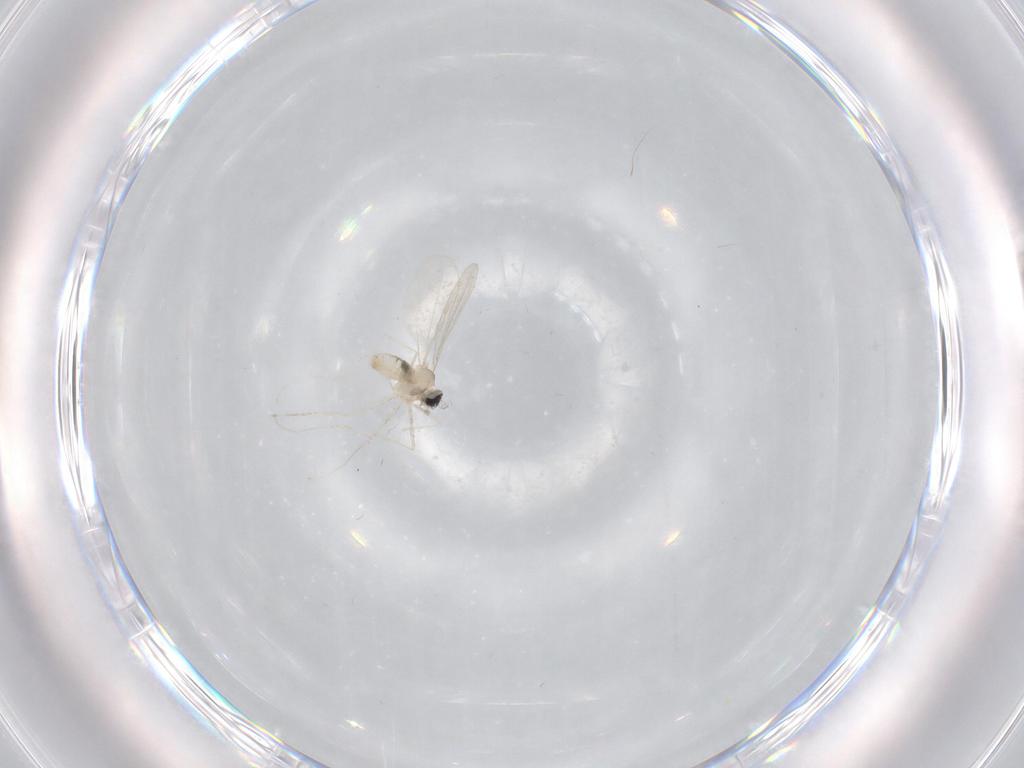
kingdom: Animalia
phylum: Arthropoda
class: Insecta
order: Diptera
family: Cecidomyiidae
